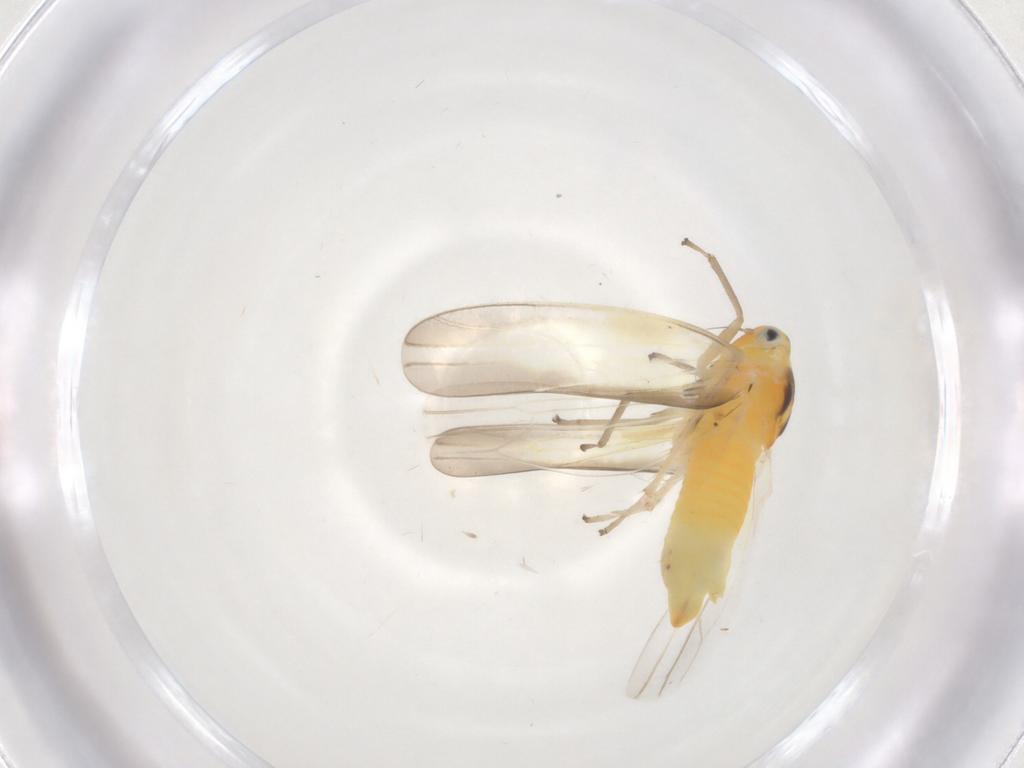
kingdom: Animalia
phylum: Arthropoda
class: Insecta
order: Hemiptera
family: Cicadellidae
